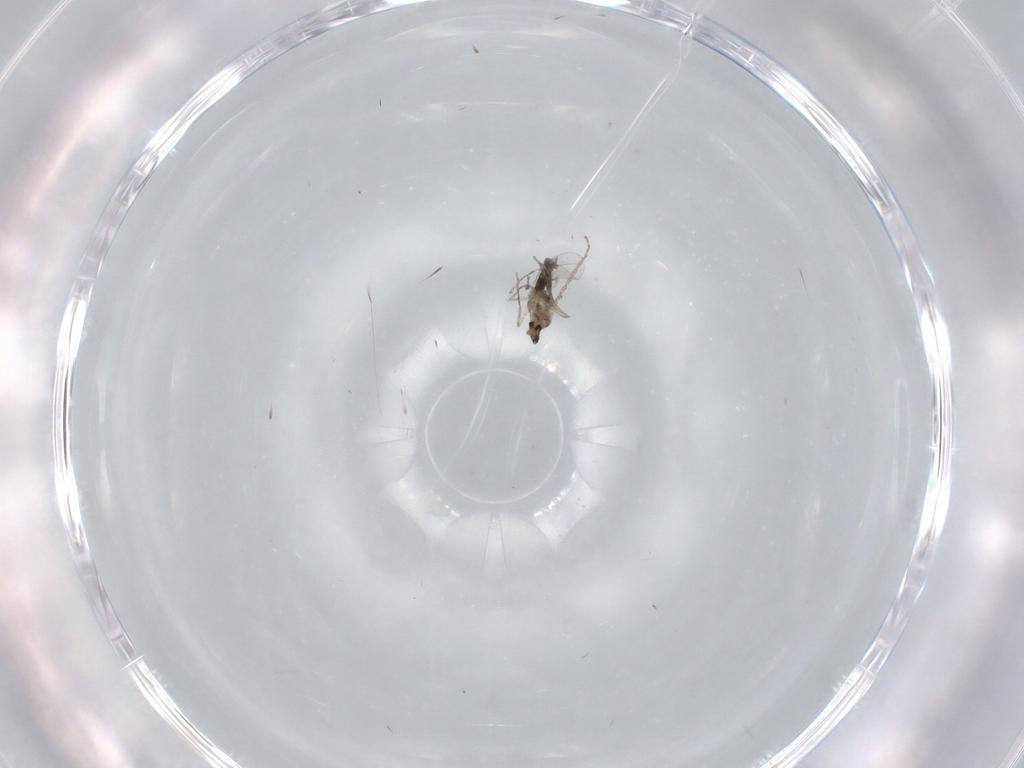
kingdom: Animalia
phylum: Arthropoda
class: Insecta
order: Diptera
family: Cecidomyiidae
